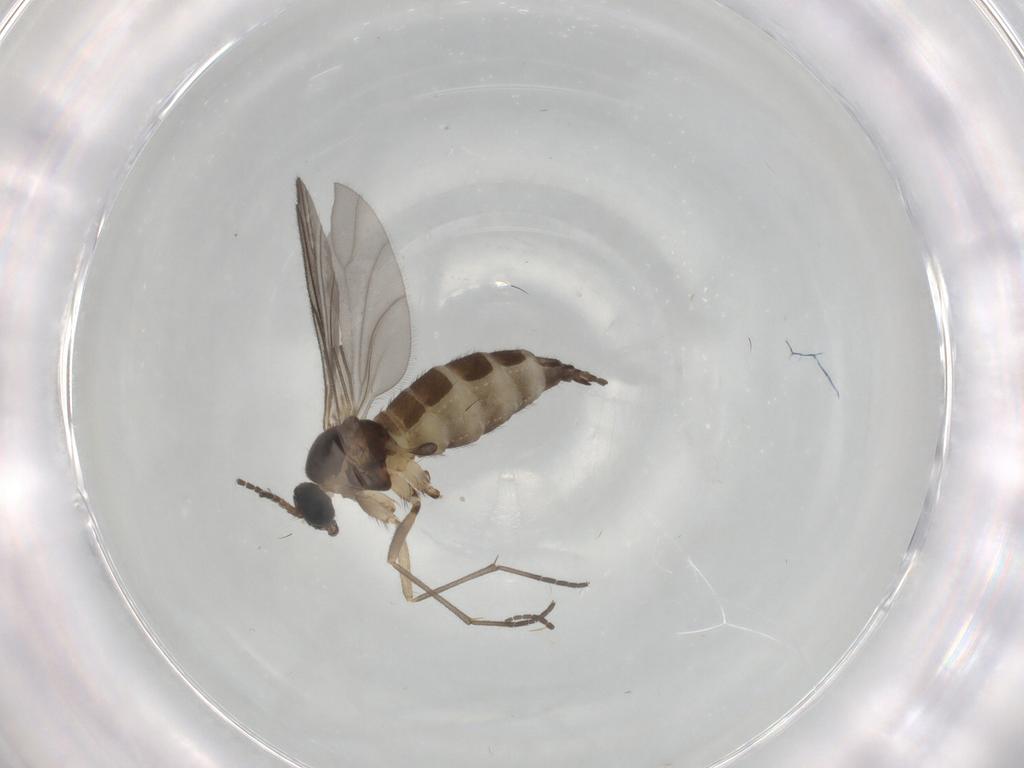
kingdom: Animalia
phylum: Arthropoda
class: Insecta
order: Diptera
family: Sciaridae
